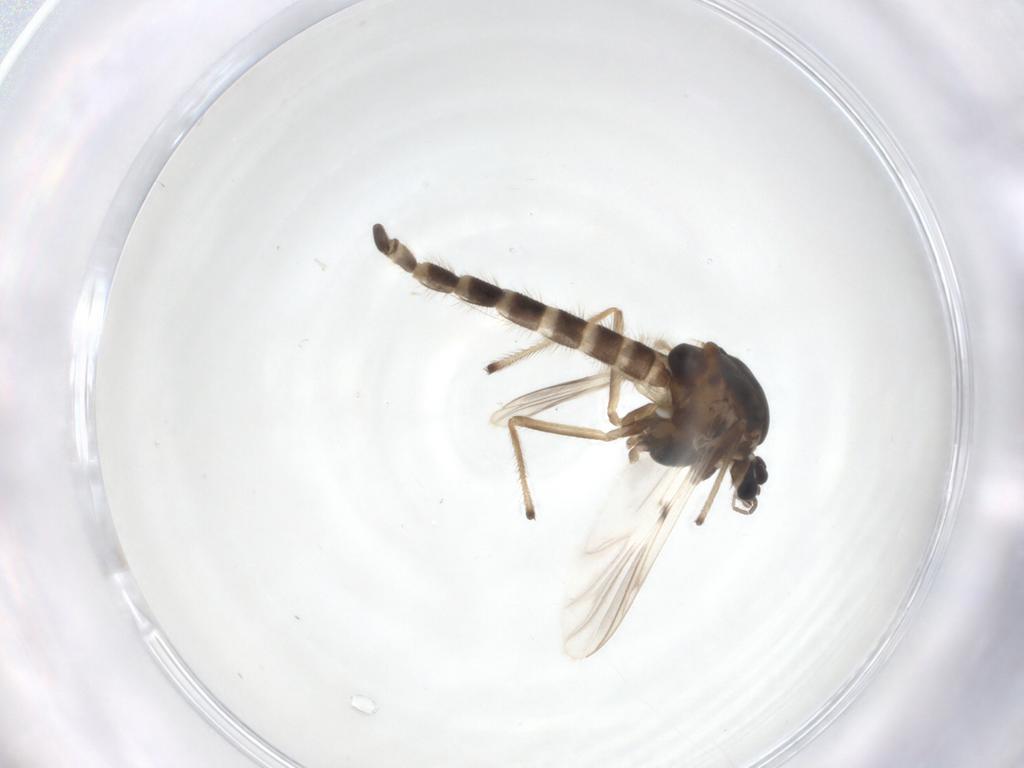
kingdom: Animalia
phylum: Arthropoda
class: Insecta
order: Diptera
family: Chironomidae
